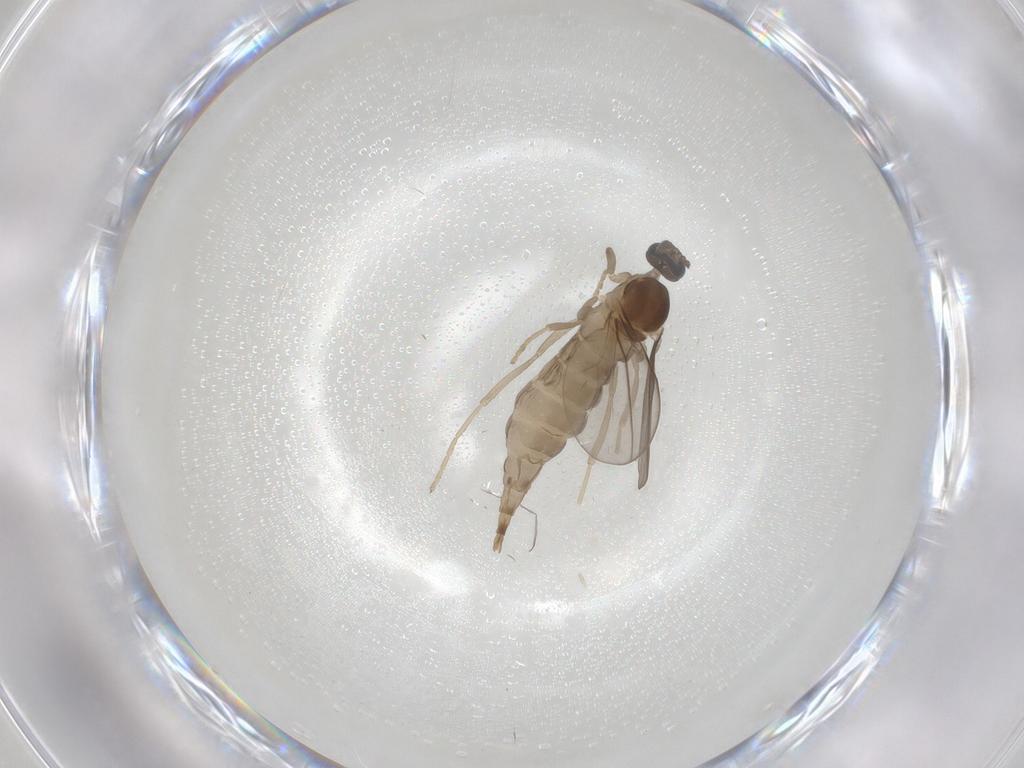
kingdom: Animalia
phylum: Arthropoda
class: Insecta
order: Diptera
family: Cecidomyiidae
